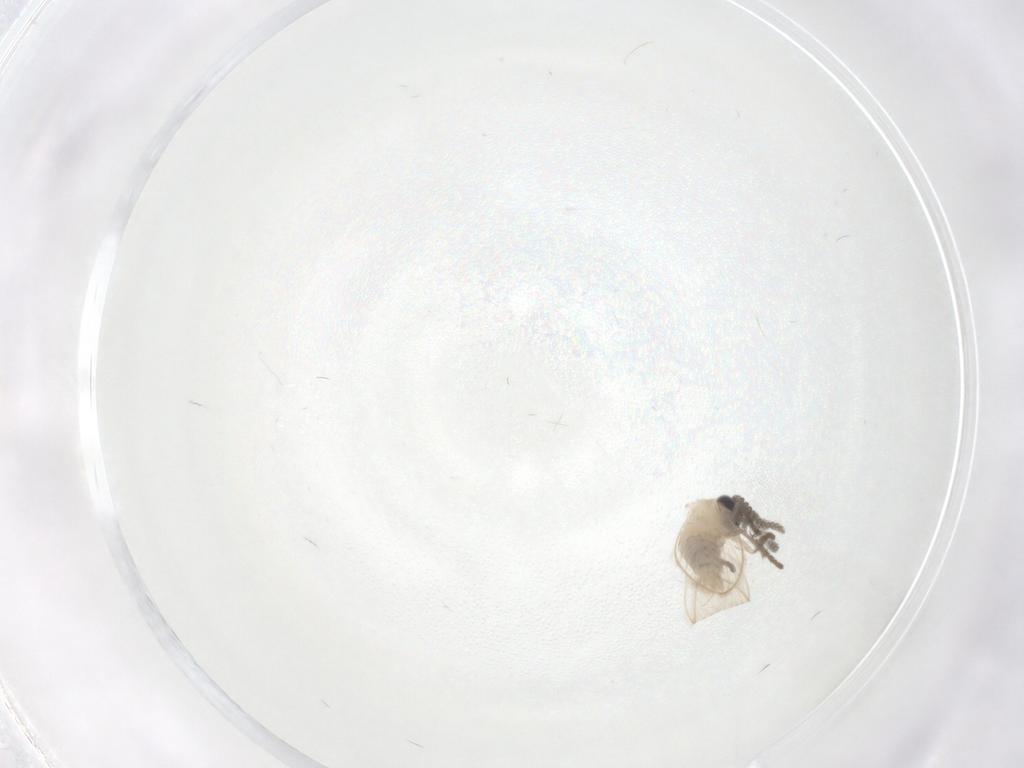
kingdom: Animalia
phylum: Arthropoda
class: Insecta
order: Diptera
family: Psychodidae
